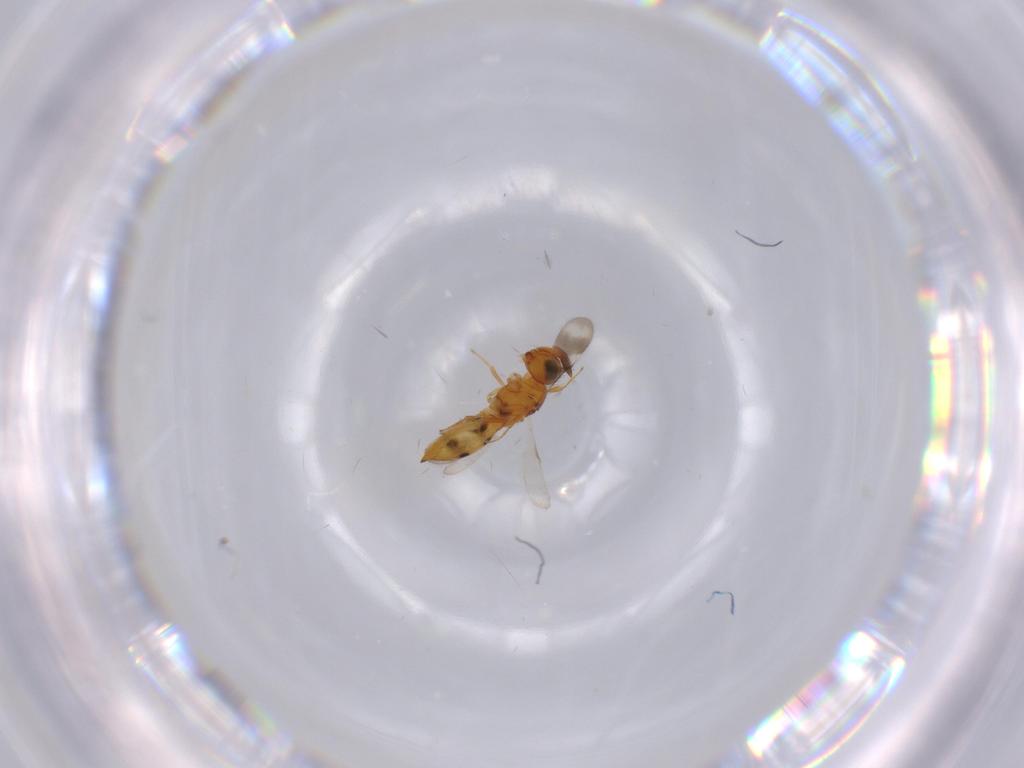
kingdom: Animalia
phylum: Arthropoda
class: Insecta
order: Hymenoptera
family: Scelionidae
